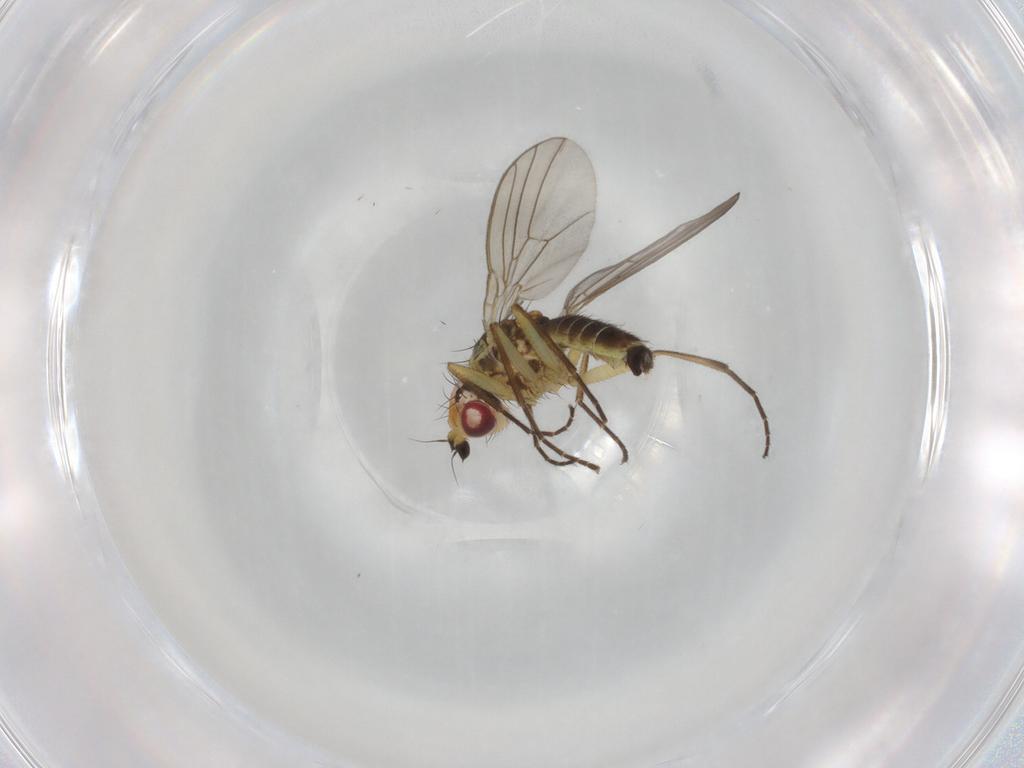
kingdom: Animalia
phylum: Arthropoda
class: Insecta
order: Diptera
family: Agromyzidae
